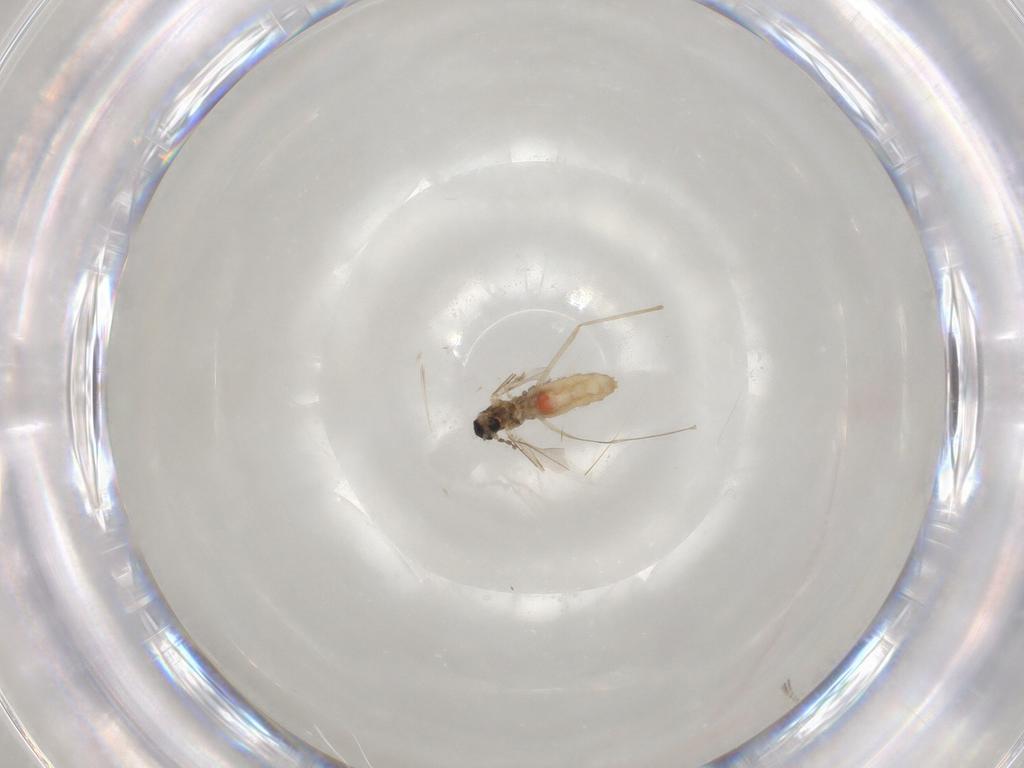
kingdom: Animalia
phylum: Arthropoda
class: Insecta
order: Diptera
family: Cecidomyiidae
